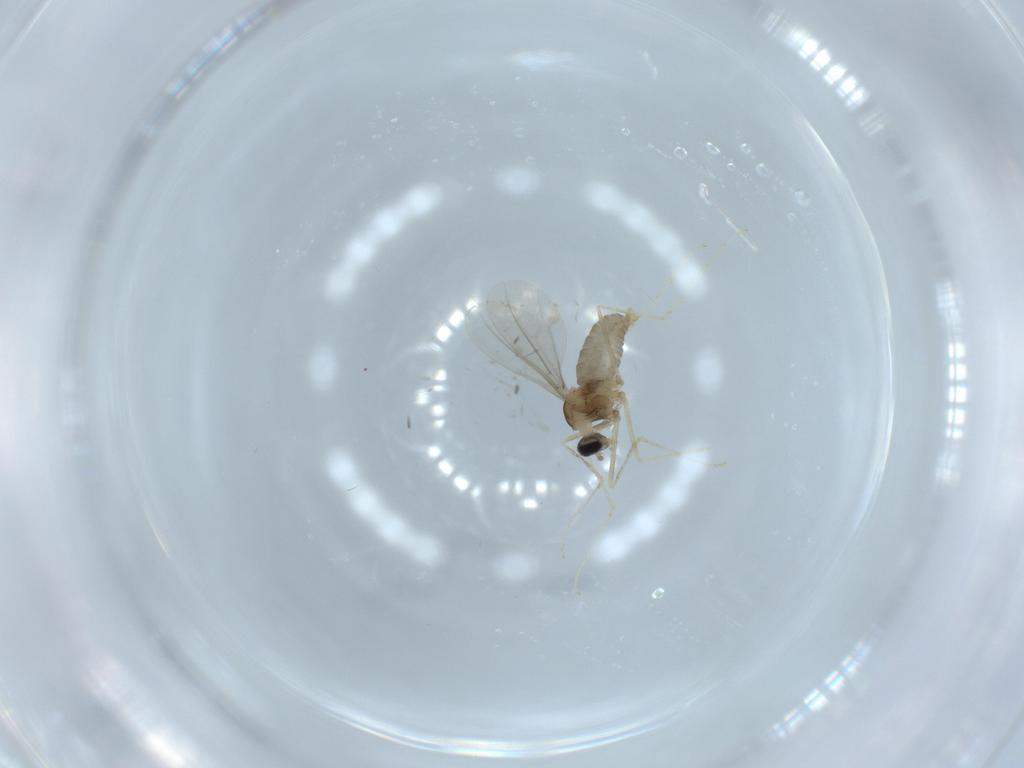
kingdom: Animalia
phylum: Arthropoda
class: Insecta
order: Diptera
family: Cecidomyiidae
